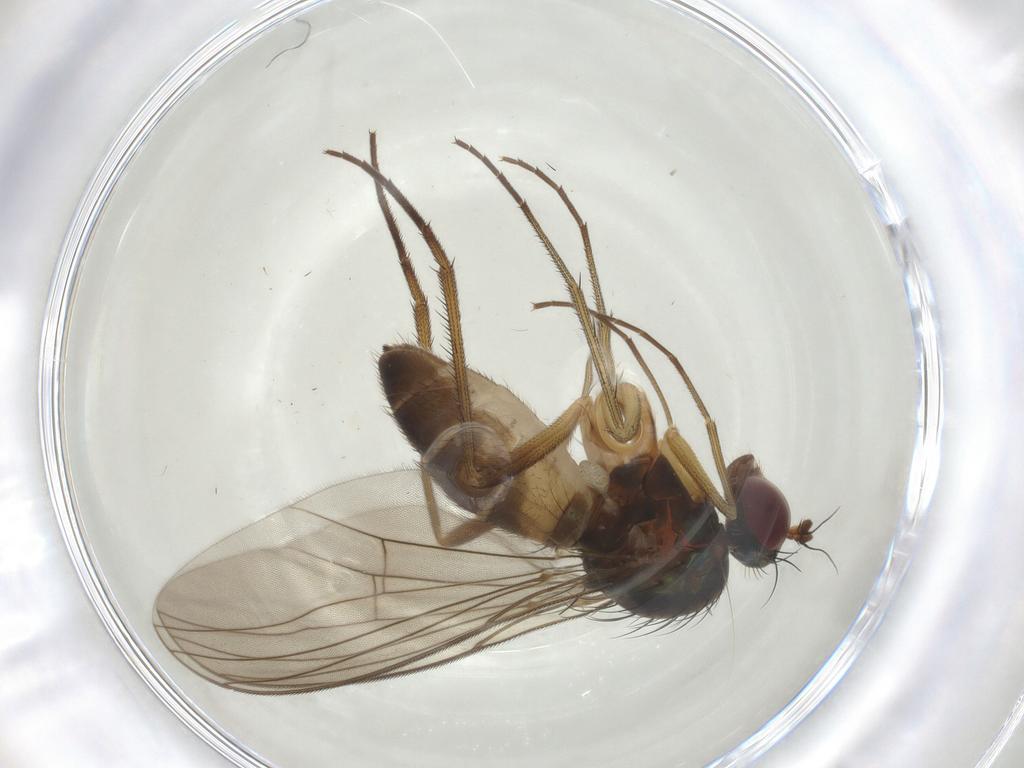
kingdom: Animalia
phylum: Arthropoda
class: Insecta
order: Diptera
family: Dolichopodidae
